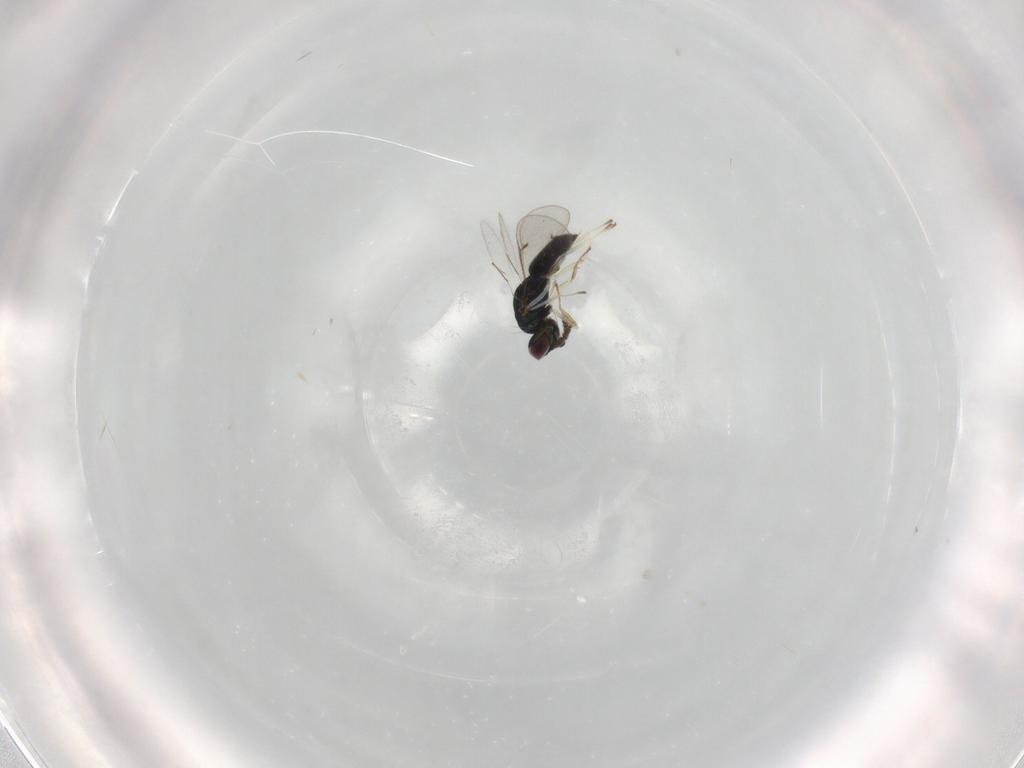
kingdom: Animalia
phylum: Arthropoda
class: Insecta
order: Hymenoptera
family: Eulophidae
